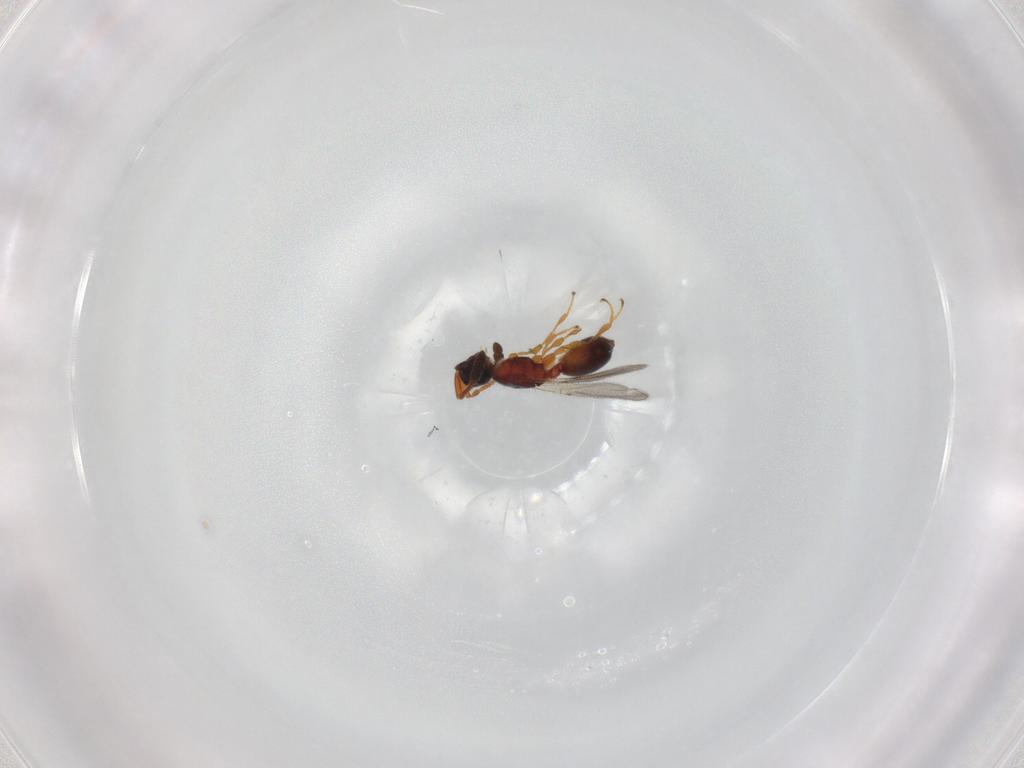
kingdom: Animalia
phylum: Arthropoda
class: Insecta
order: Hymenoptera
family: Diapriidae
